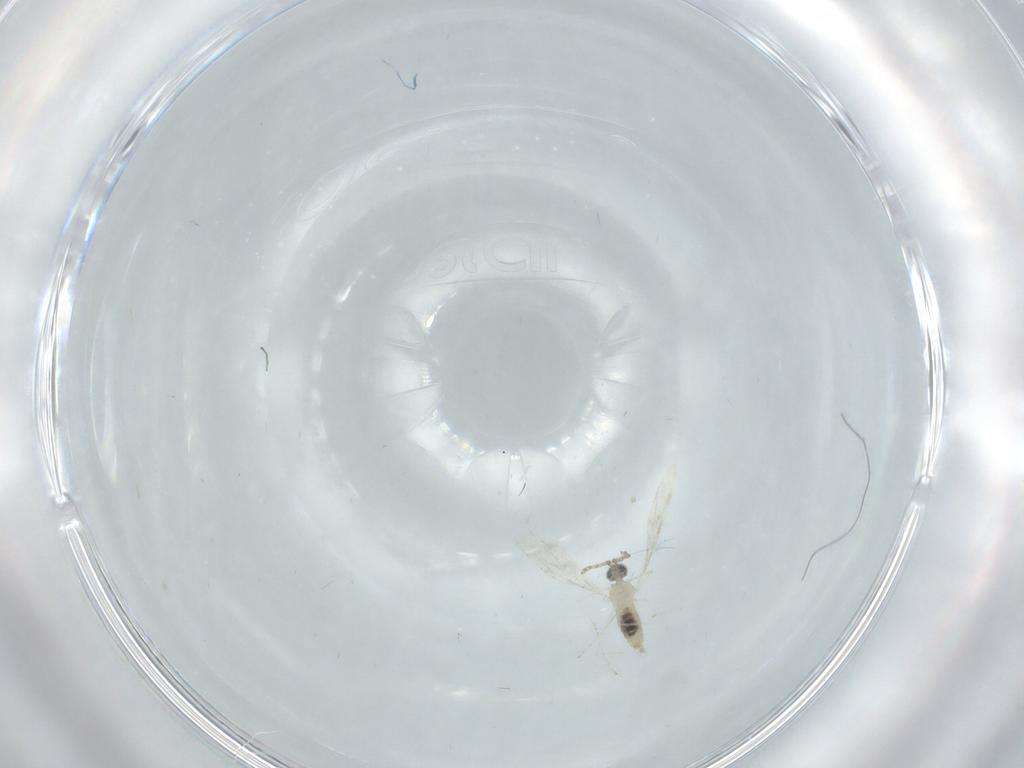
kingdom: Animalia
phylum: Arthropoda
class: Insecta
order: Diptera
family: Cecidomyiidae
